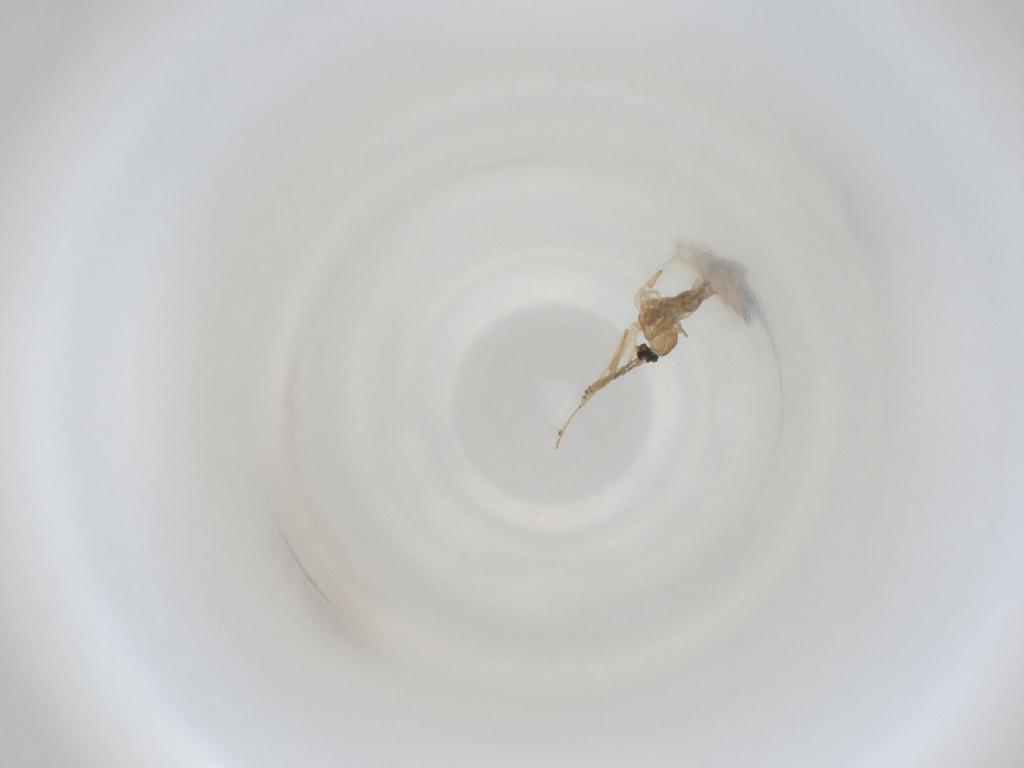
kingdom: Animalia
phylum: Arthropoda
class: Insecta
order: Diptera
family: Cecidomyiidae
